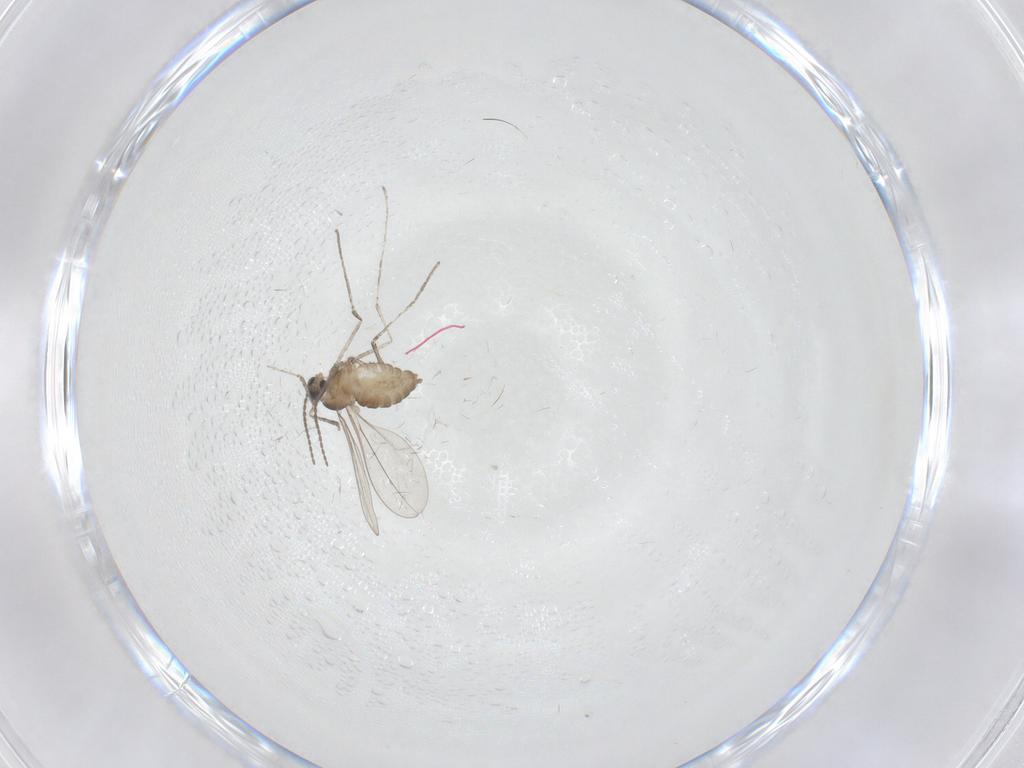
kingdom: Animalia
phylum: Arthropoda
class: Insecta
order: Diptera
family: Cecidomyiidae
